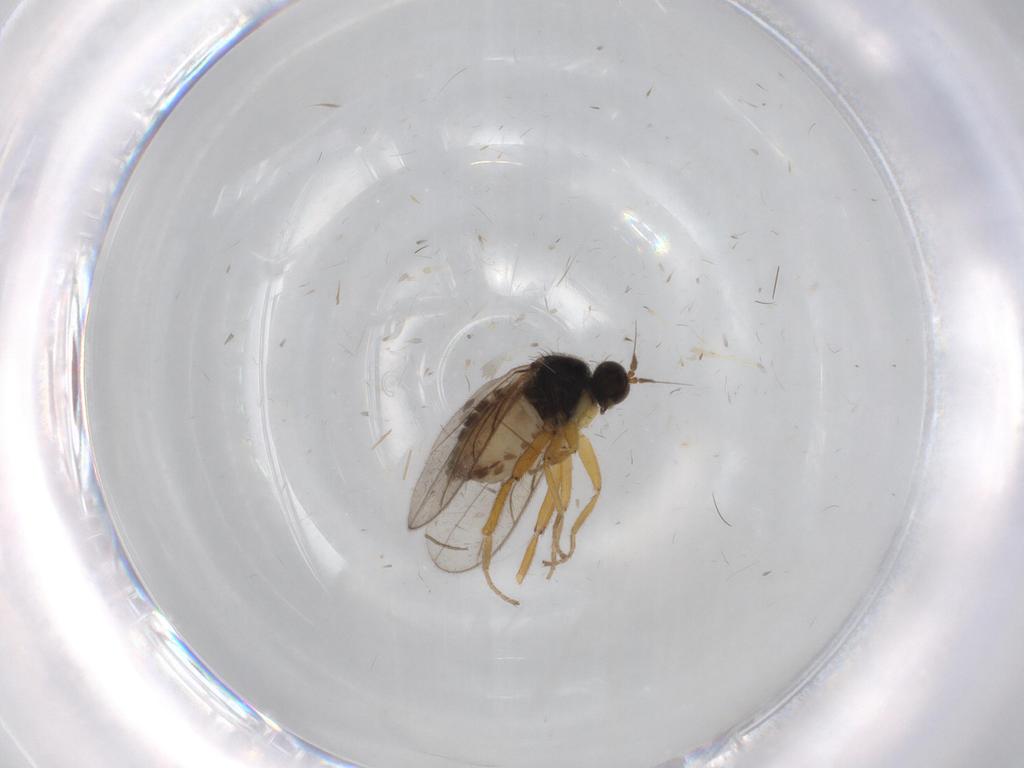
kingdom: Animalia
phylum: Arthropoda
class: Insecta
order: Diptera
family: Hybotidae
